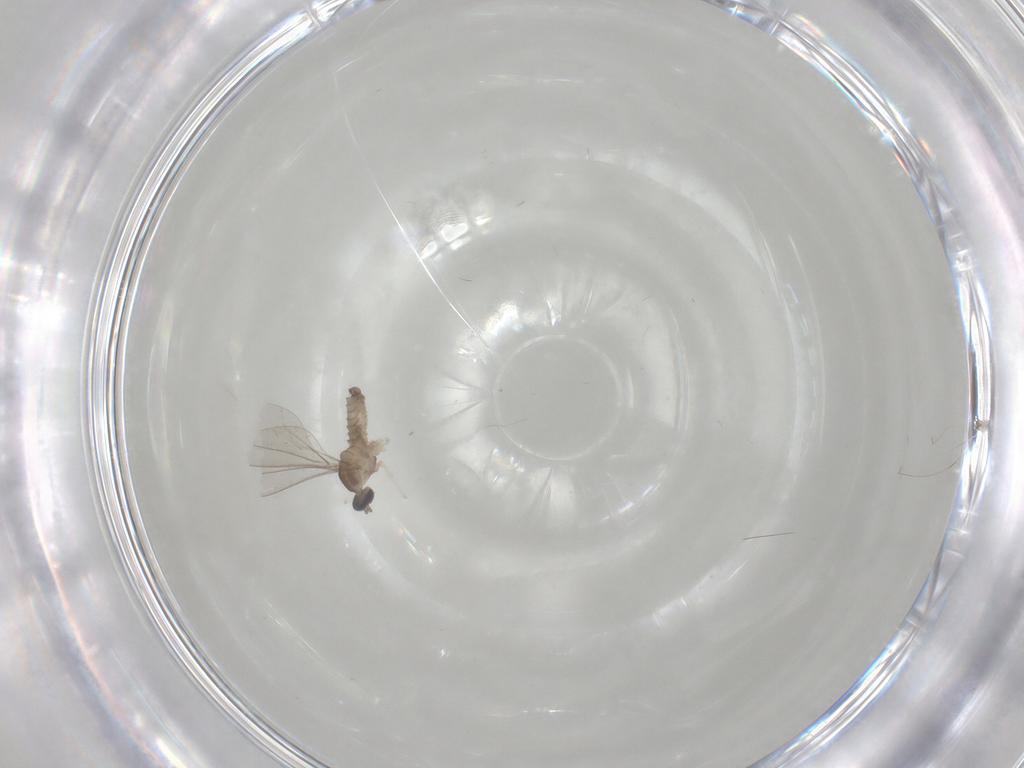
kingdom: Animalia
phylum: Arthropoda
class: Insecta
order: Diptera
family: Cecidomyiidae
